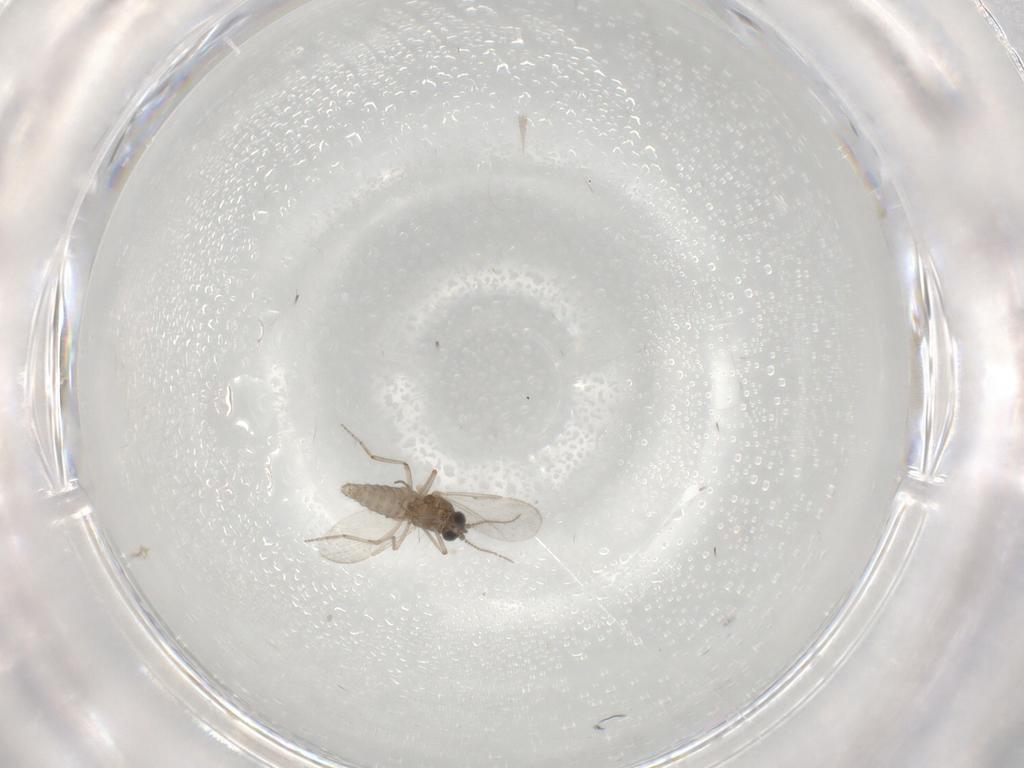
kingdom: Animalia
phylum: Arthropoda
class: Insecta
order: Diptera
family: Ceratopogonidae
